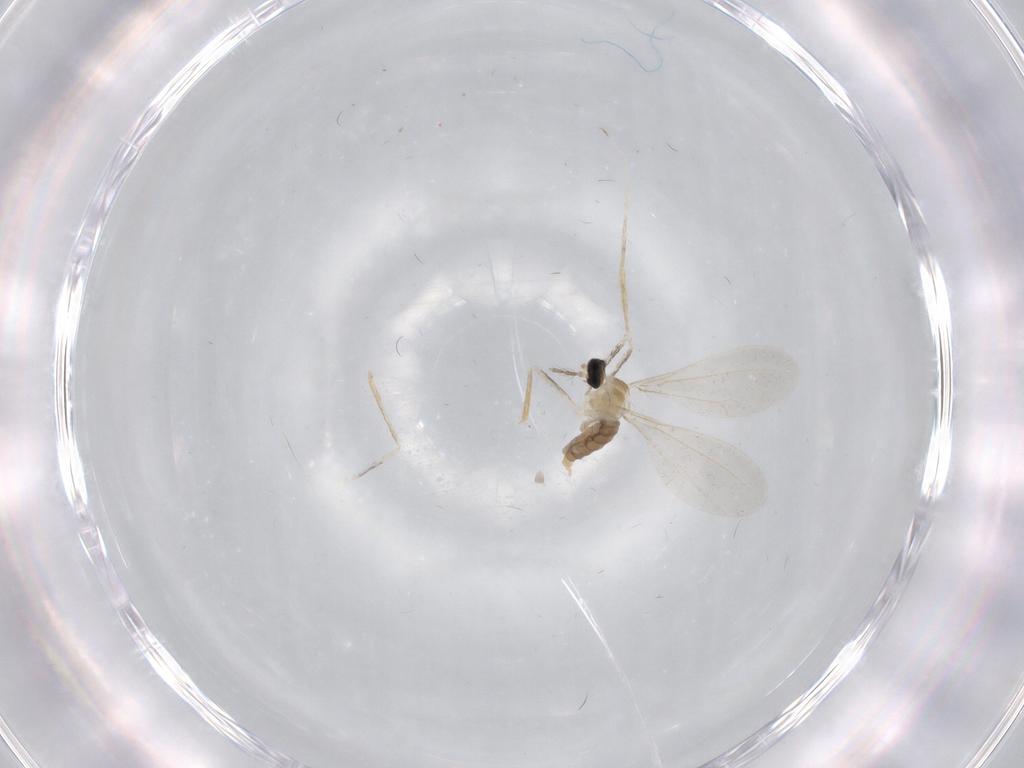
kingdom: Animalia
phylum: Arthropoda
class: Insecta
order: Diptera
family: Cecidomyiidae
